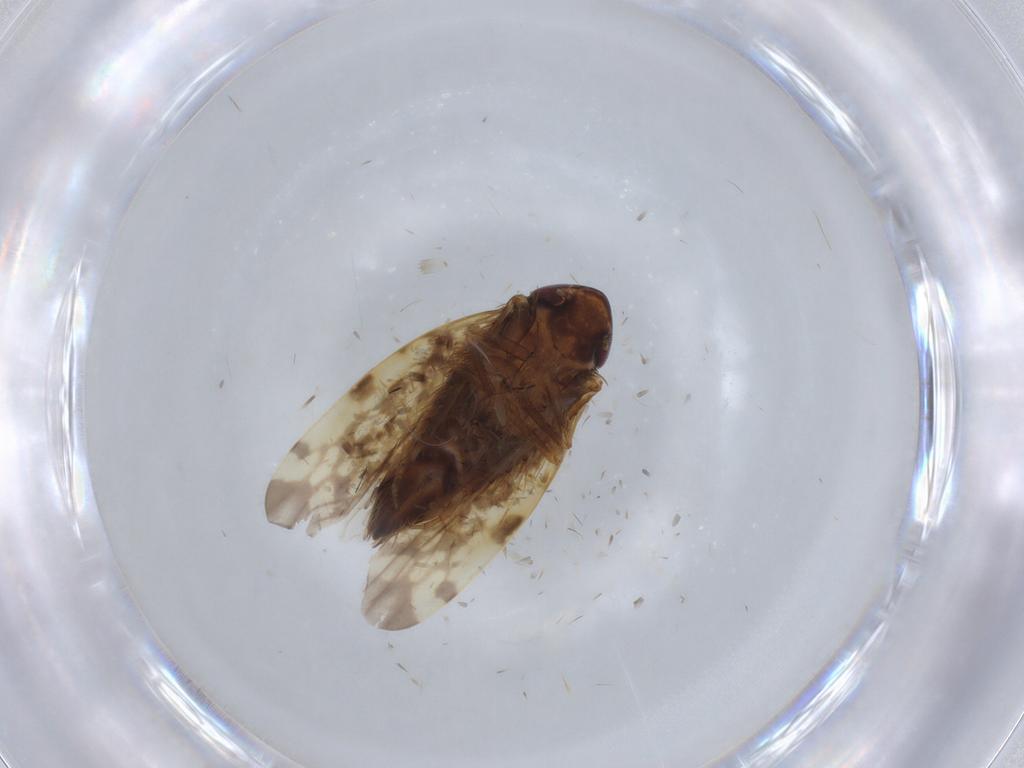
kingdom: Animalia
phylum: Arthropoda
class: Insecta
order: Hemiptera
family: Cicadellidae
